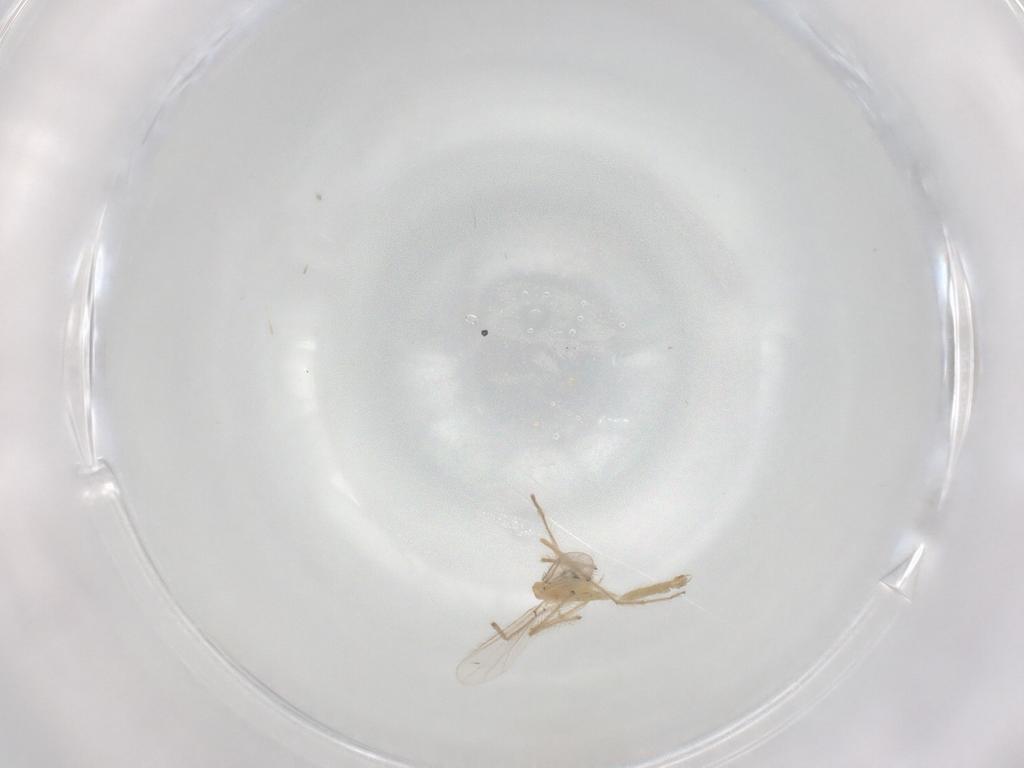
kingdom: Animalia
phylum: Arthropoda
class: Insecta
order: Diptera
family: Chironomidae
